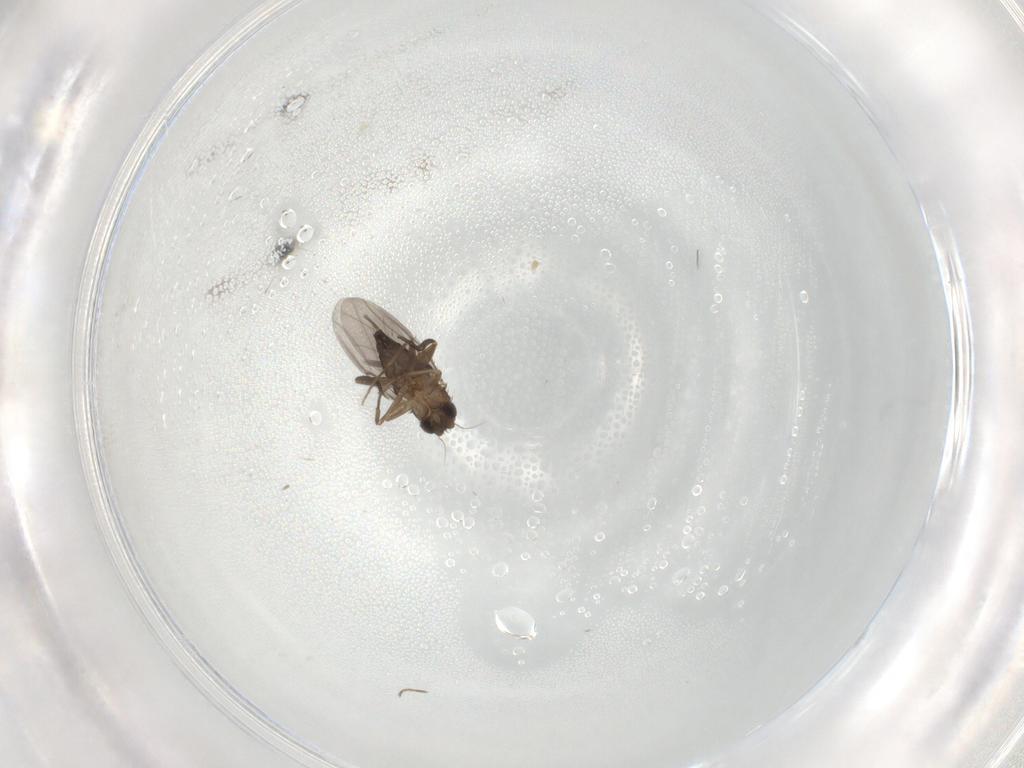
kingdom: Animalia
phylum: Arthropoda
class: Insecta
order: Diptera
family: Sciaridae
